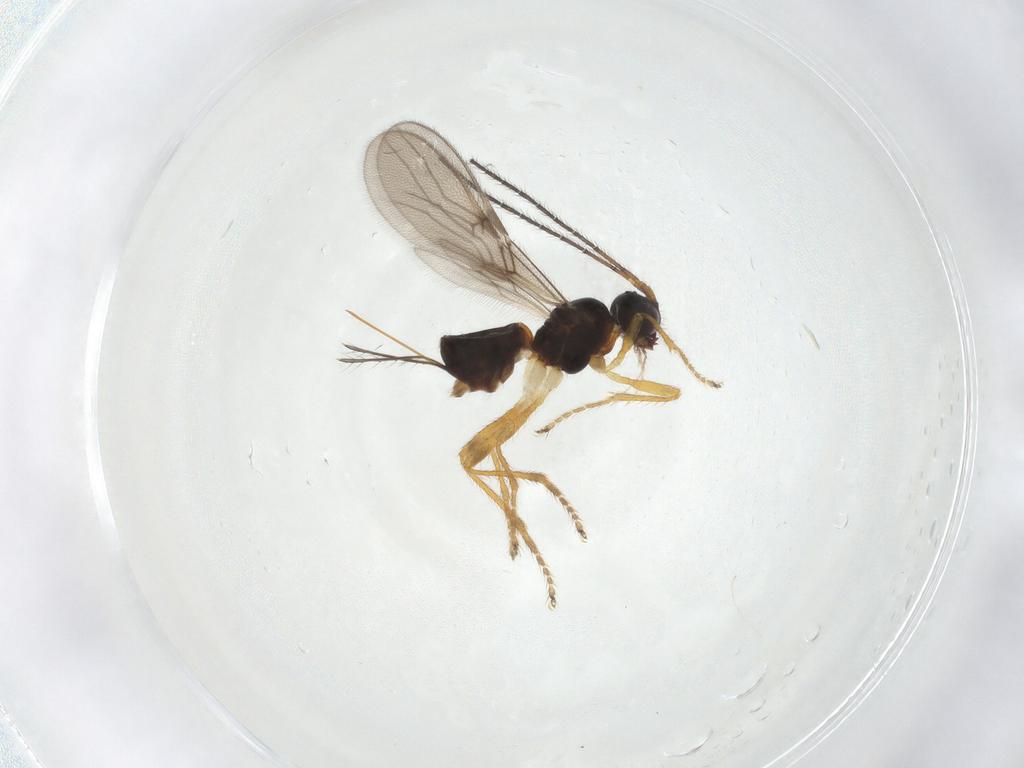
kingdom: Animalia
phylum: Arthropoda
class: Insecta
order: Hymenoptera
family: Braconidae
